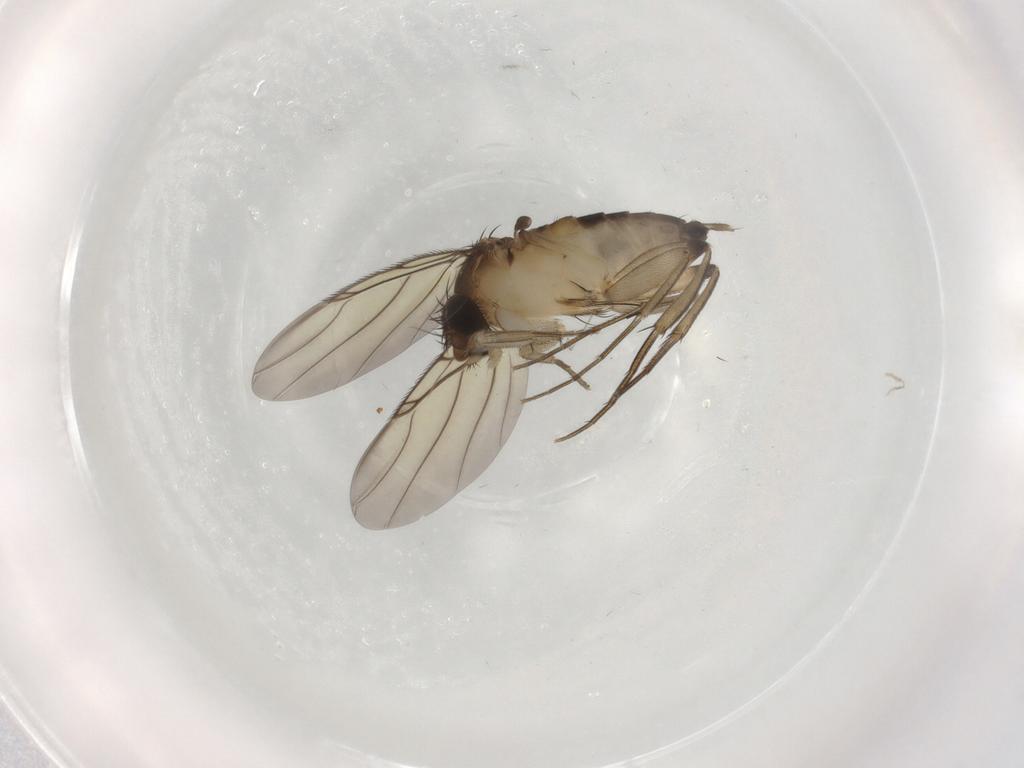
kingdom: Animalia
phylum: Arthropoda
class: Insecta
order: Diptera
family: Phoridae
